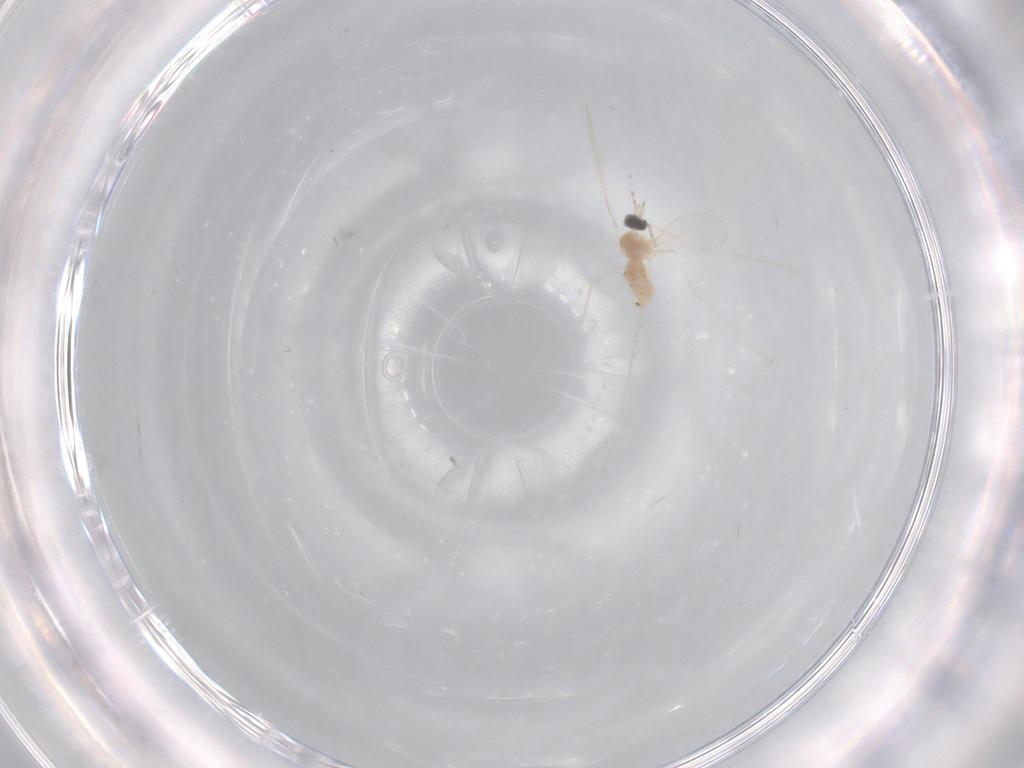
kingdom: Animalia
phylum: Arthropoda
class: Insecta
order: Diptera
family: Cecidomyiidae
